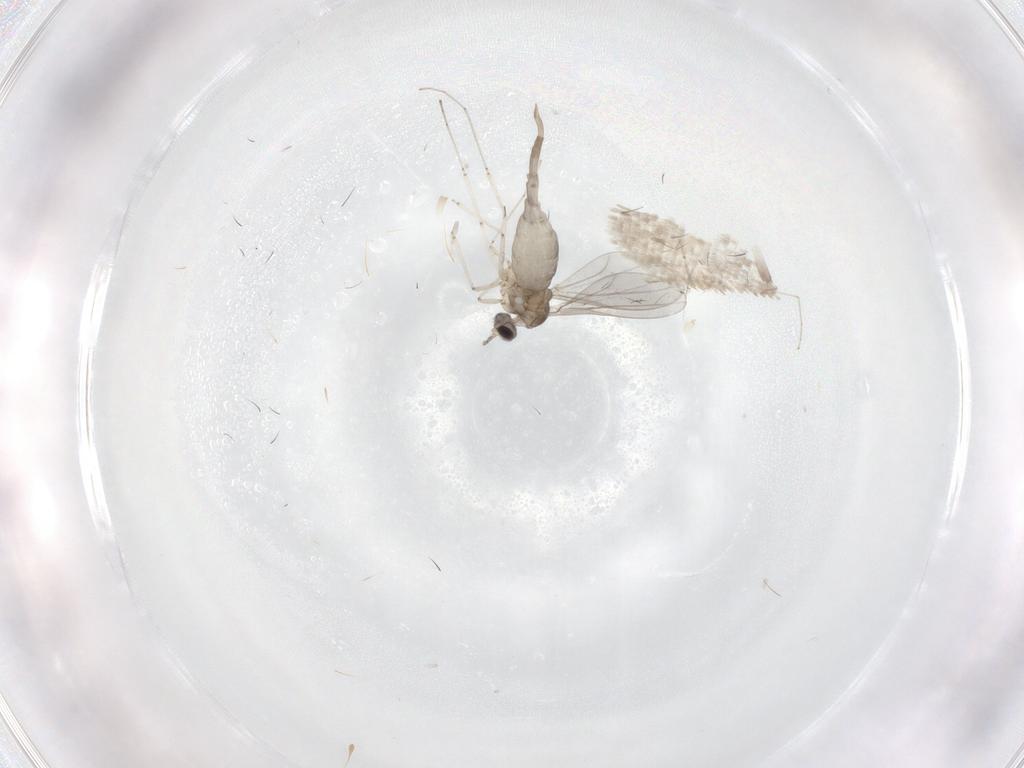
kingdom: Animalia
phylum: Arthropoda
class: Insecta
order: Diptera
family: Cecidomyiidae
